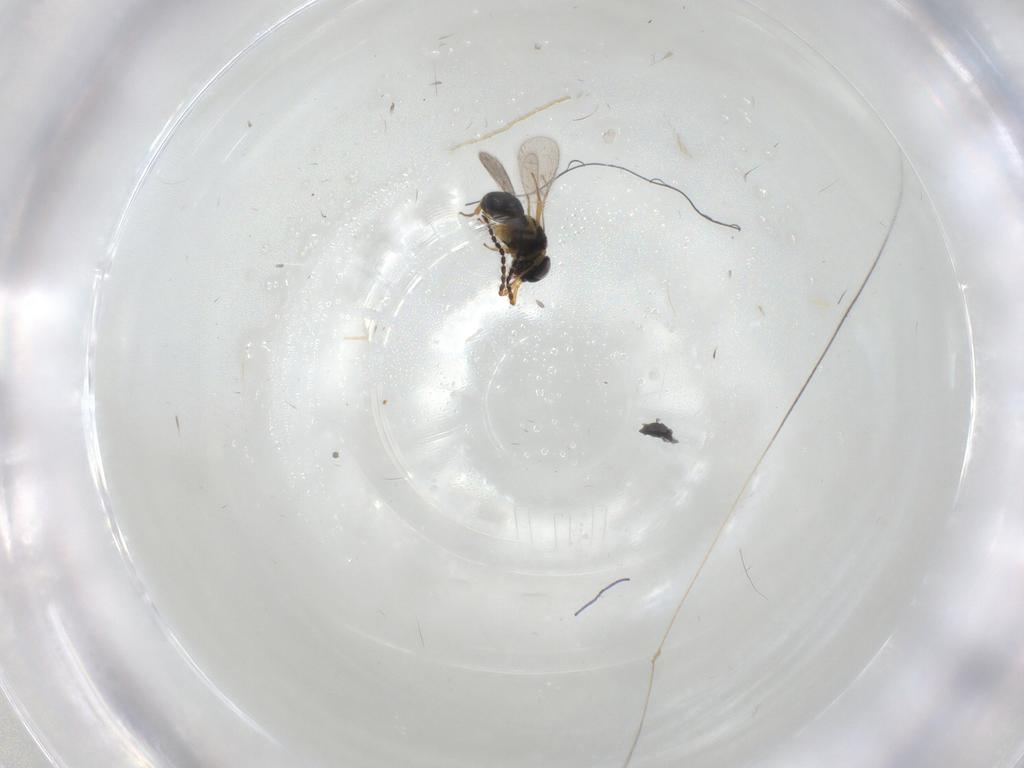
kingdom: Animalia
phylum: Arthropoda
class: Insecta
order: Hymenoptera
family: Scelionidae
